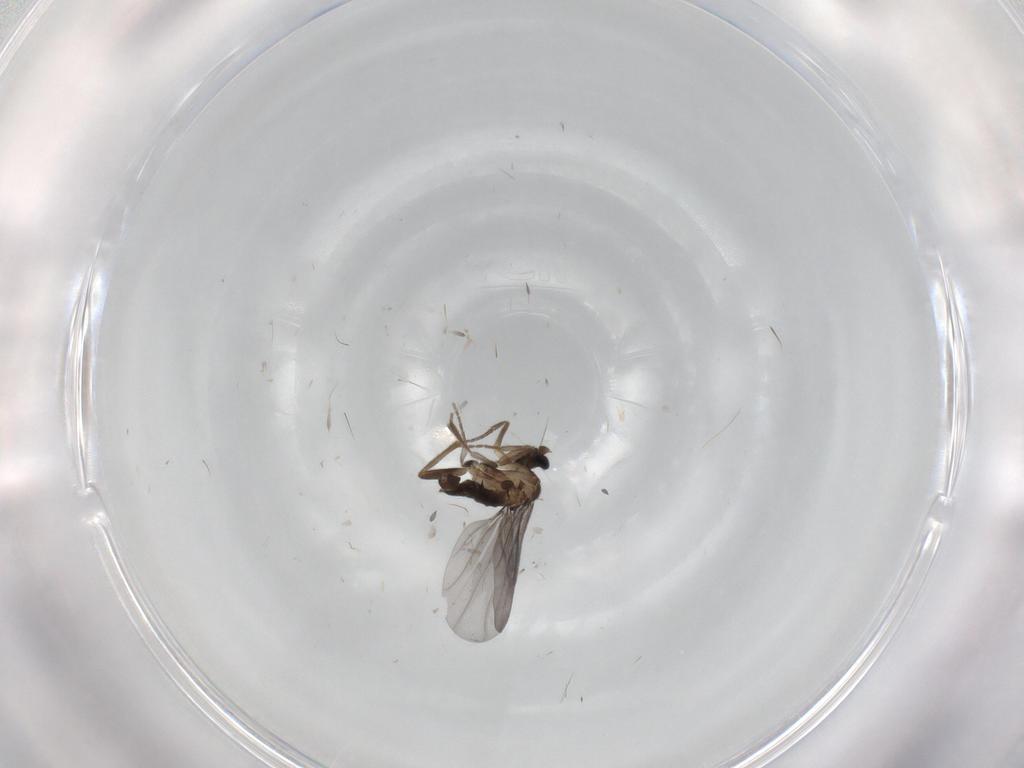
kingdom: Animalia
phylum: Arthropoda
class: Insecta
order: Diptera
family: Phoridae
